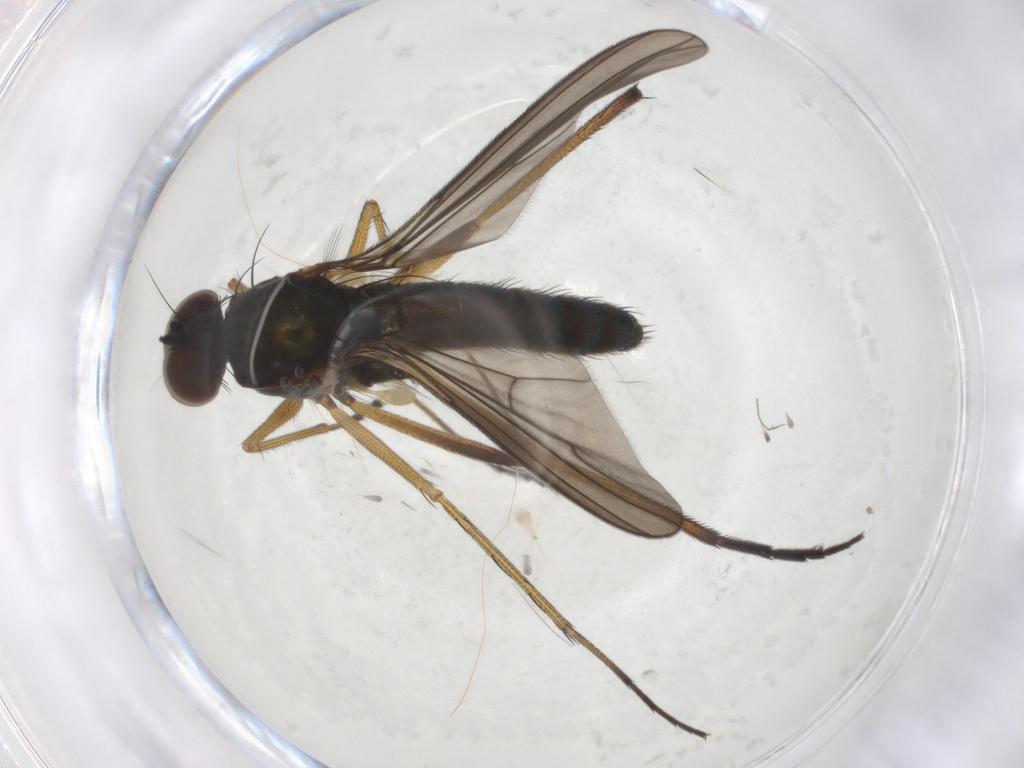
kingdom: Animalia
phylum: Arthropoda
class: Insecta
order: Diptera
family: Dolichopodidae
